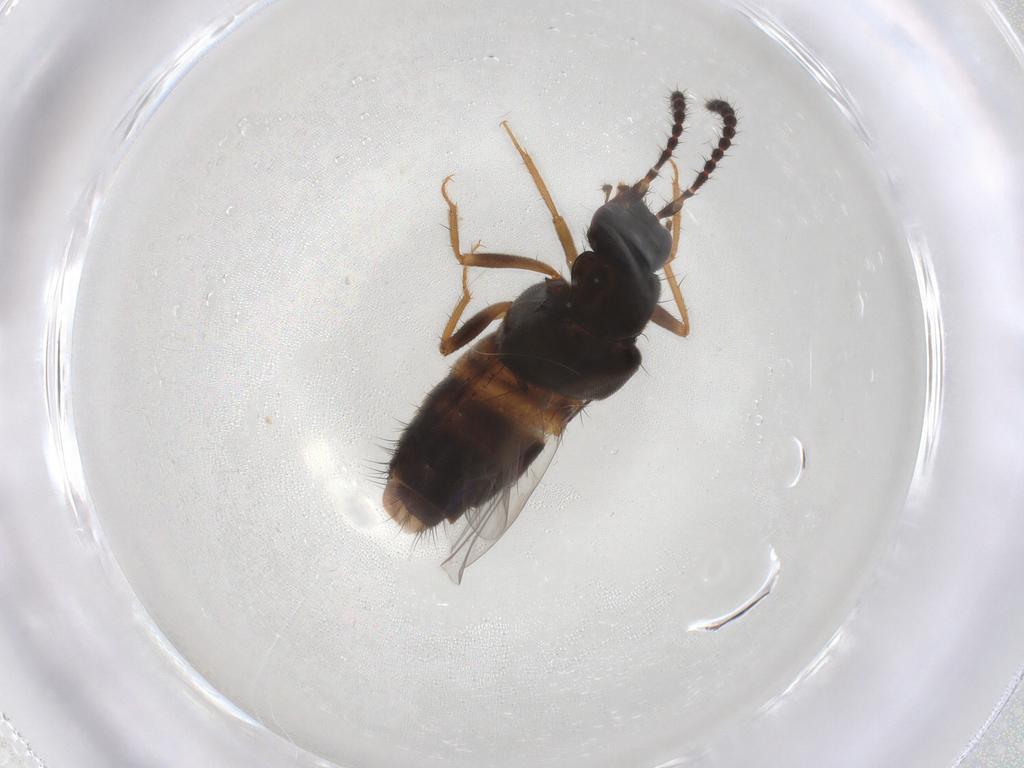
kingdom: Animalia
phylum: Arthropoda
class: Insecta
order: Coleoptera
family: Staphylinidae
